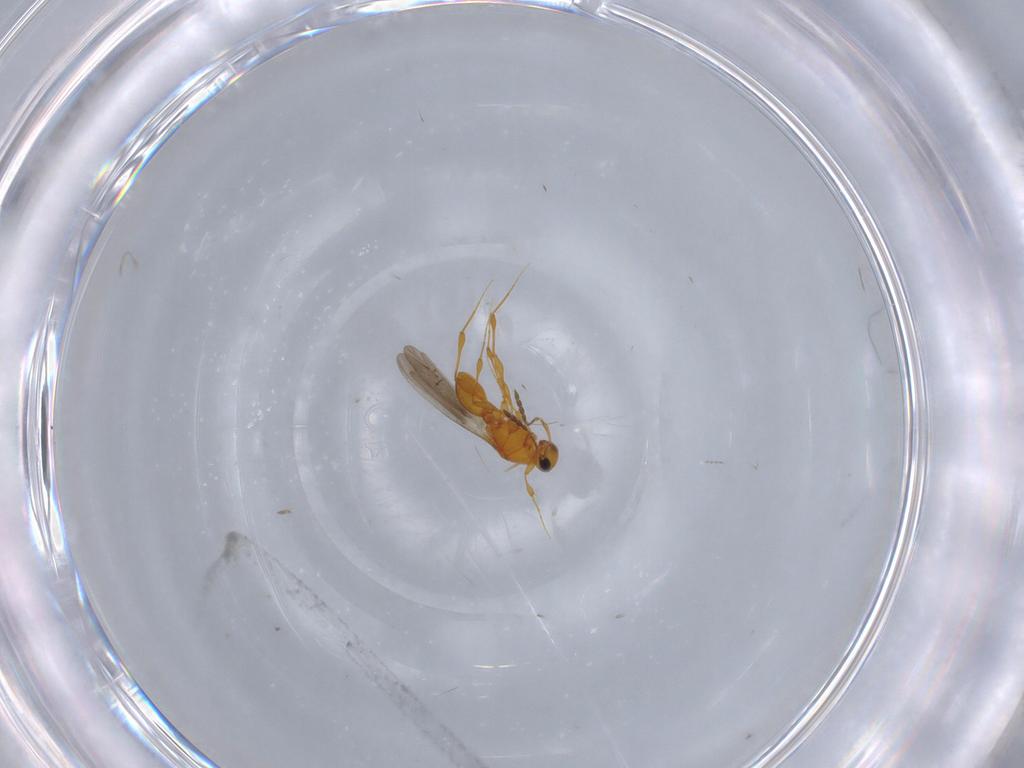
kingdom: Animalia
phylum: Arthropoda
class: Insecta
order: Hymenoptera
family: Platygastridae
